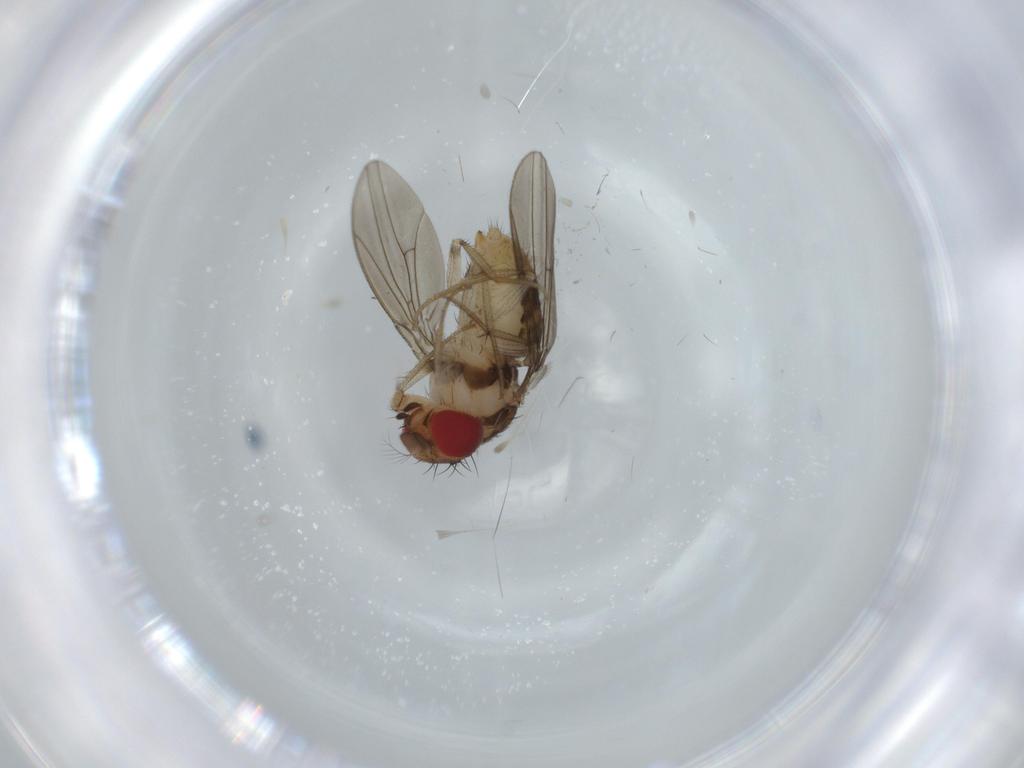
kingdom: Animalia
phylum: Arthropoda
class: Insecta
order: Diptera
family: Drosophilidae
